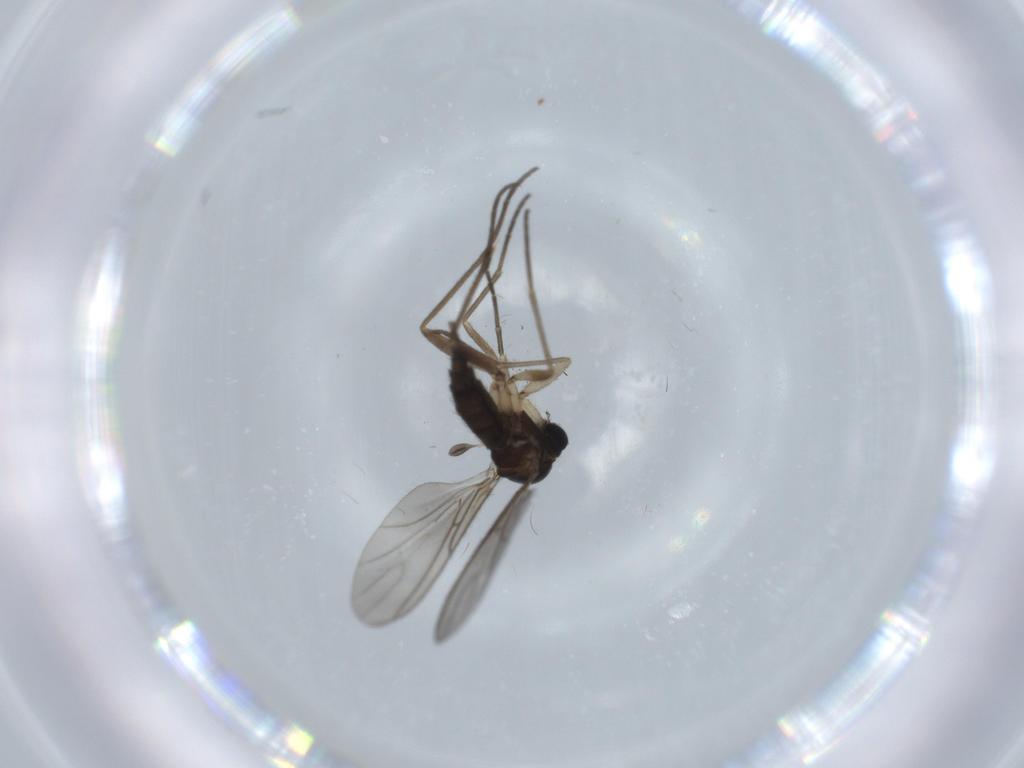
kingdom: Animalia
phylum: Arthropoda
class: Insecta
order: Diptera
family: Sciaridae
